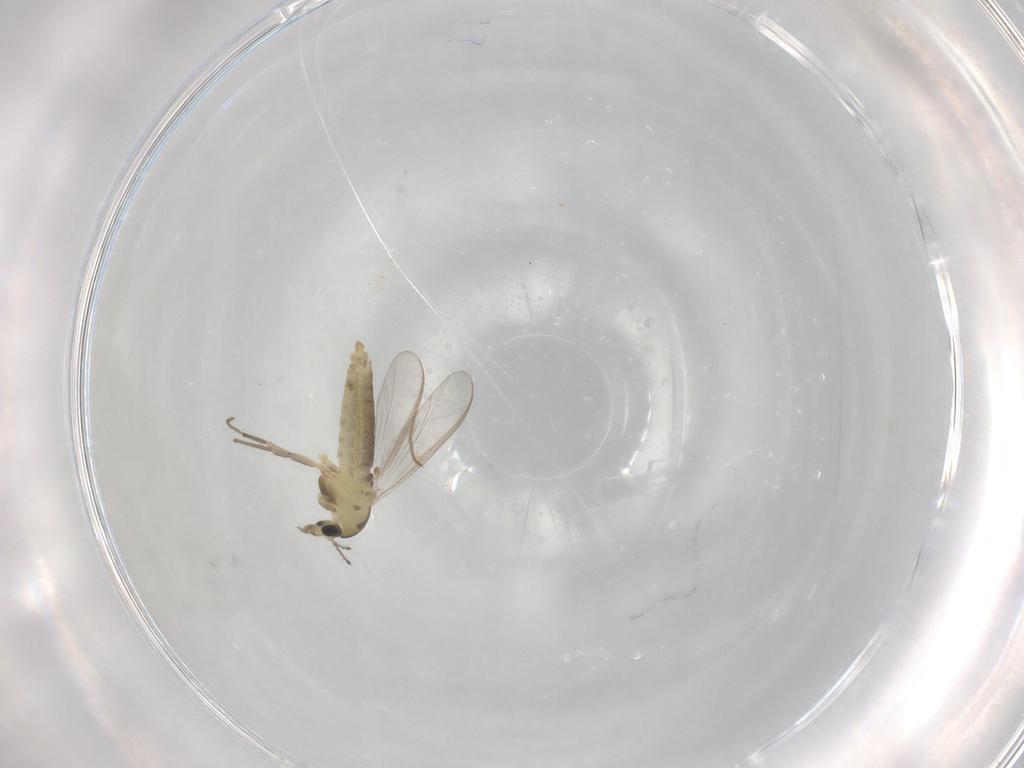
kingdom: Animalia
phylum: Arthropoda
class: Insecta
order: Diptera
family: Chironomidae
